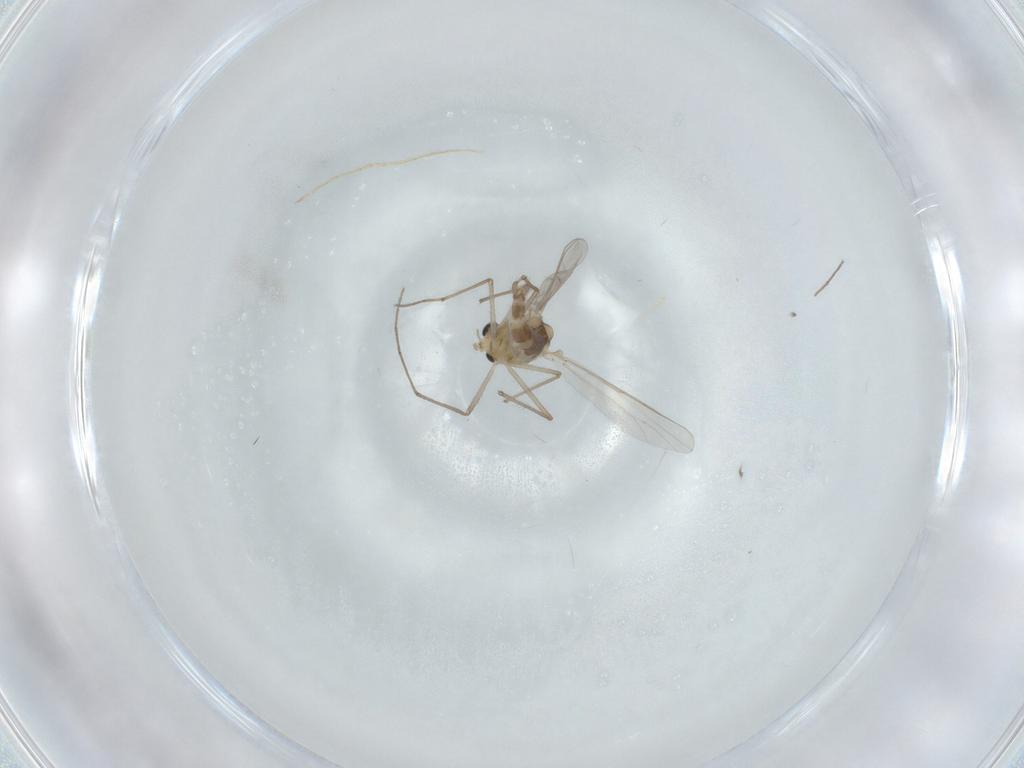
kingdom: Animalia
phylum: Arthropoda
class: Insecta
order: Diptera
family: Chironomidae
